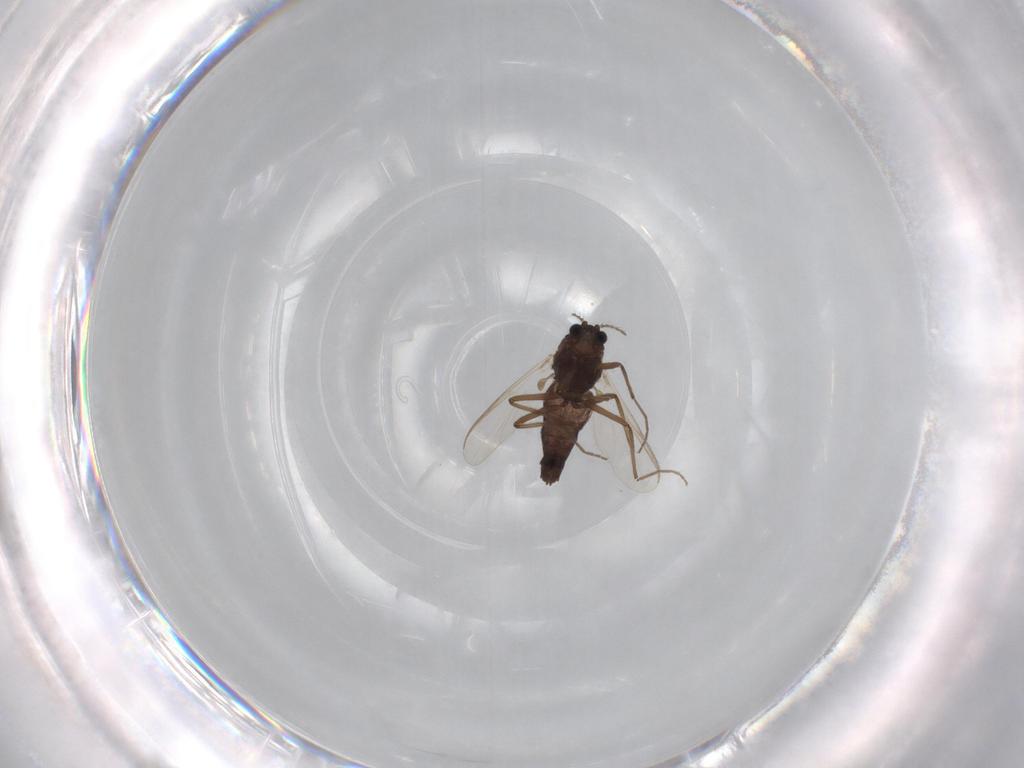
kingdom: Animalia
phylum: Arthropoda
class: Insecta
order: Diptera
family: Chironomidae
